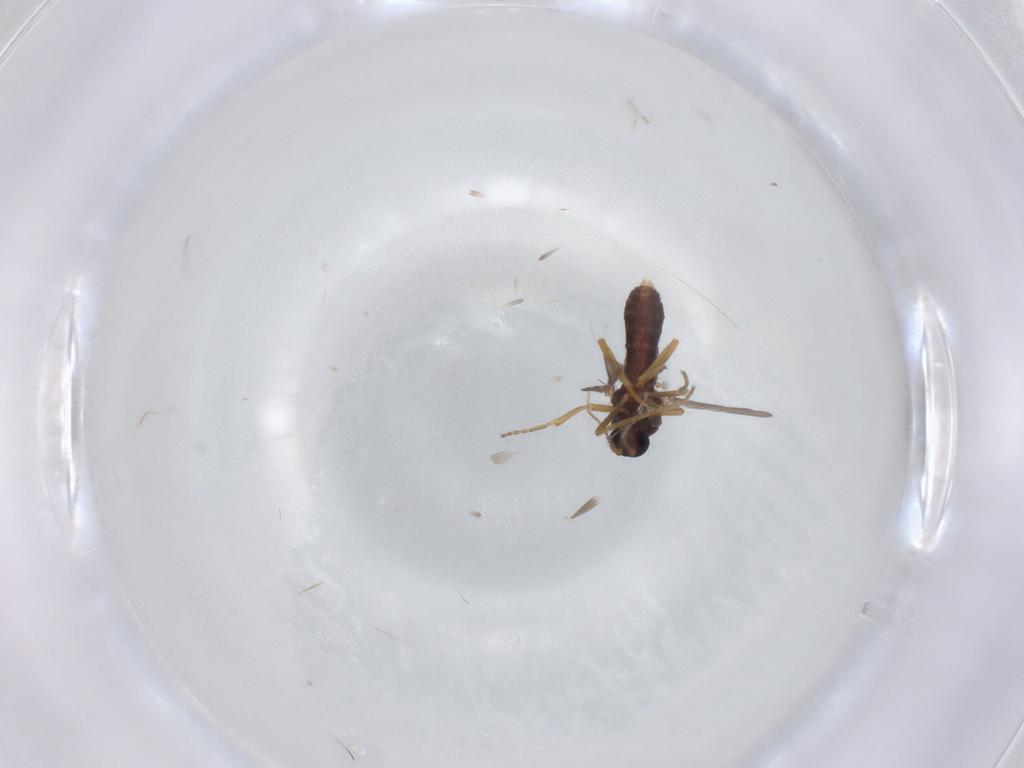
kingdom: Animalia
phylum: Arthropoda
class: Insecta
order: Diptera
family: Ceratopogonidae
